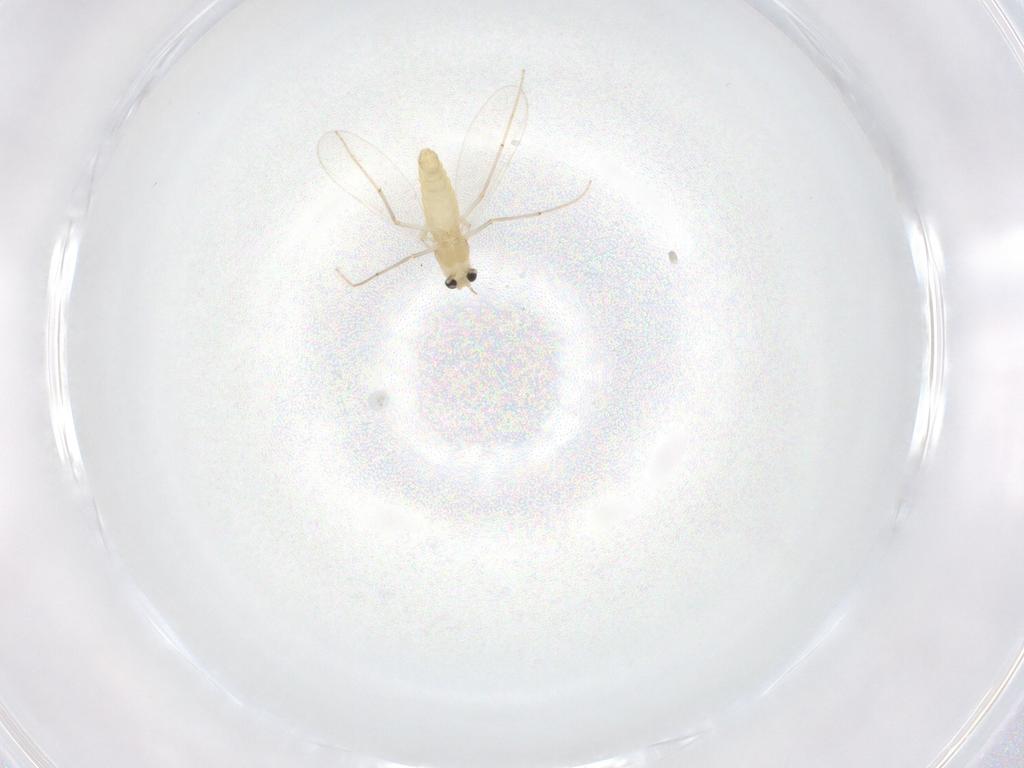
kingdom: Animalia
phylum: Arthropoda
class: Insecta
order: Diptera
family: Chironomidae
